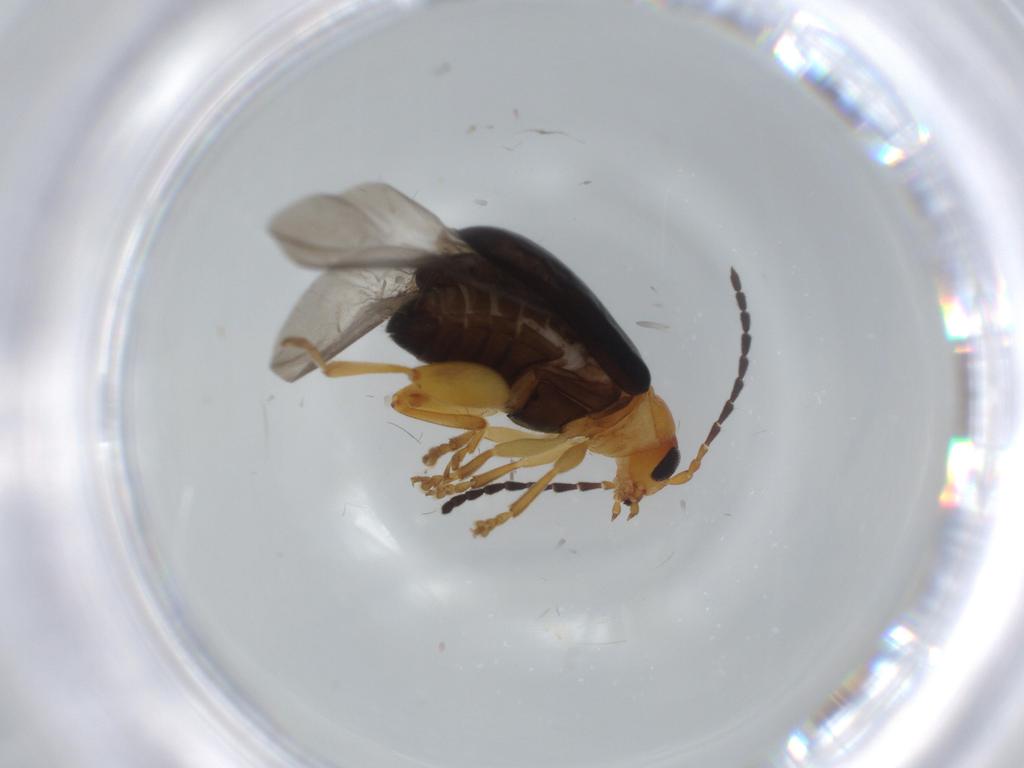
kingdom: Animalia
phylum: Arthropoda
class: Insecta
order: Coleoptera
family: Chrysomelidae
